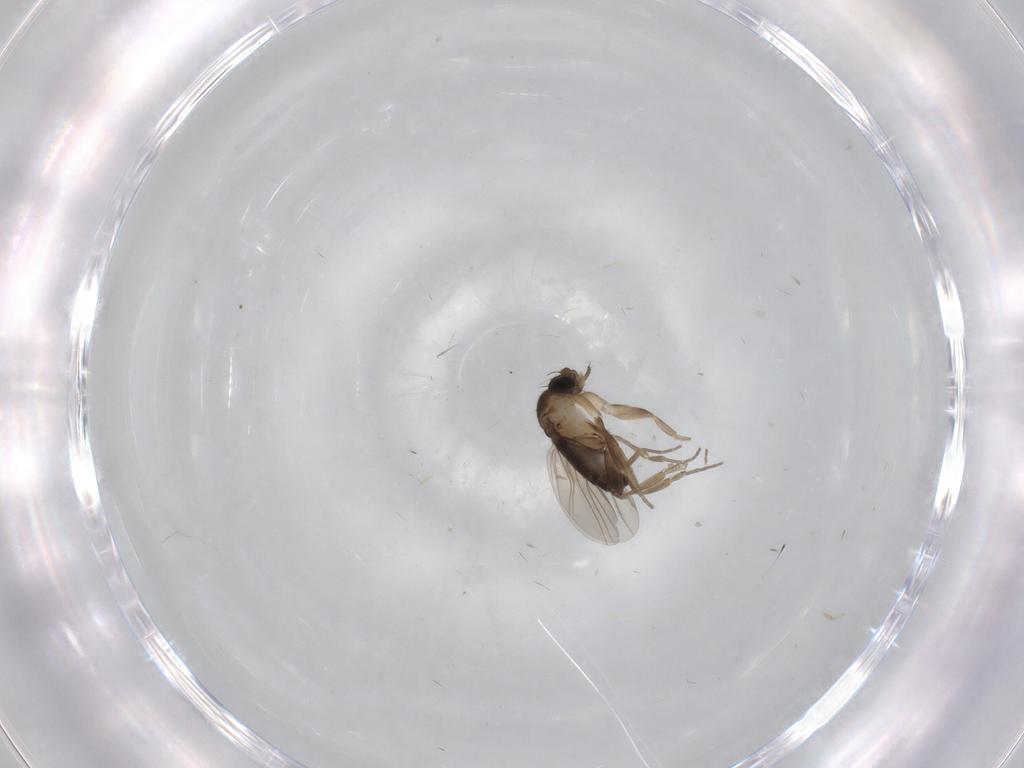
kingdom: Animalia
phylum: Arthropoda
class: Insecta
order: Diptera
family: Phoridae
